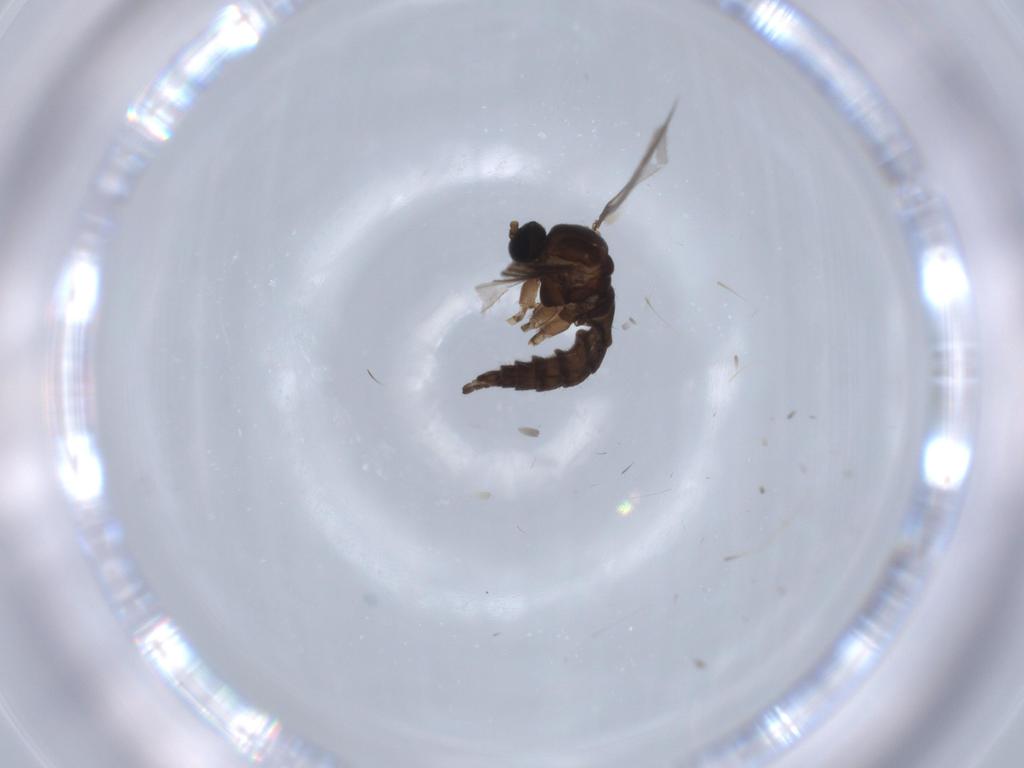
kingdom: Animalia
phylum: Arthropoda
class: Insecta
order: Diptera
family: Sciaridae
